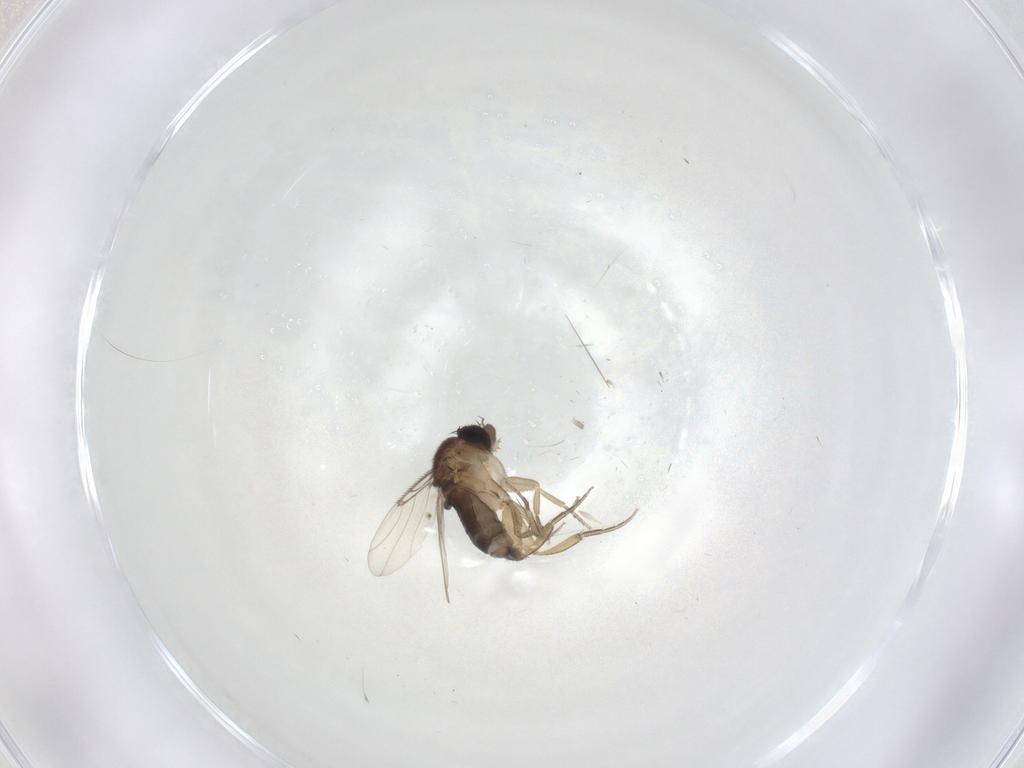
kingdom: Animalia
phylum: Arthropoda
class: Insecta
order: Diptera
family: Phoridae
